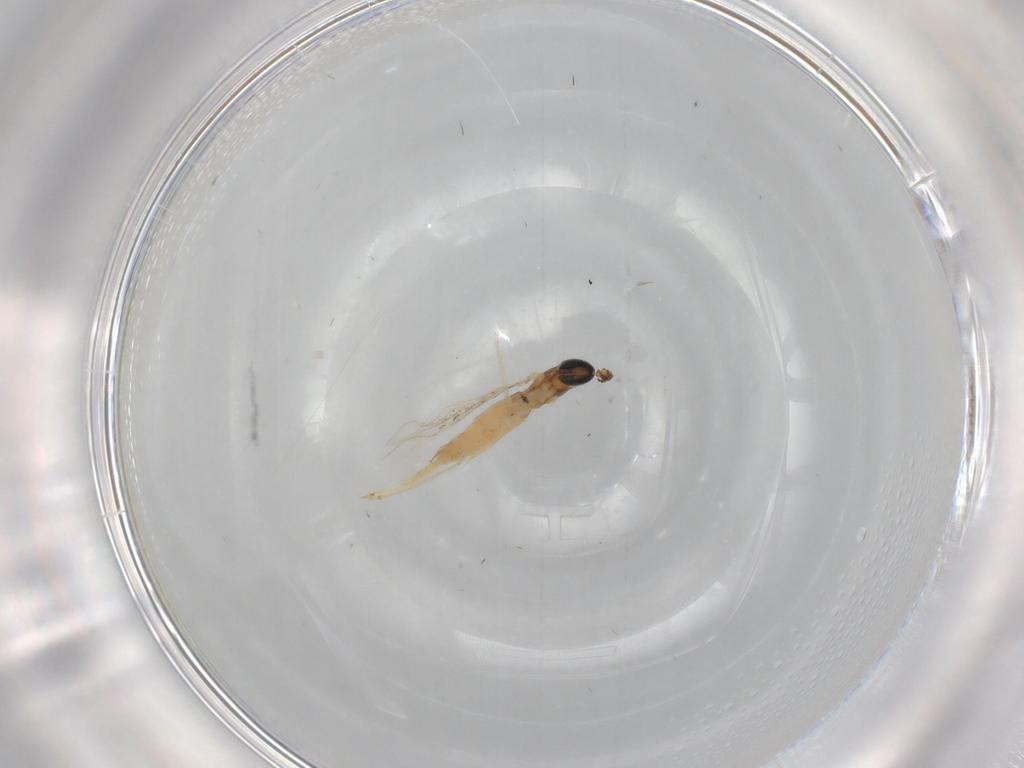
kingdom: Animalia
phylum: Arthropoda
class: Insecta
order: Diptera
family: Cecidomyiidae
